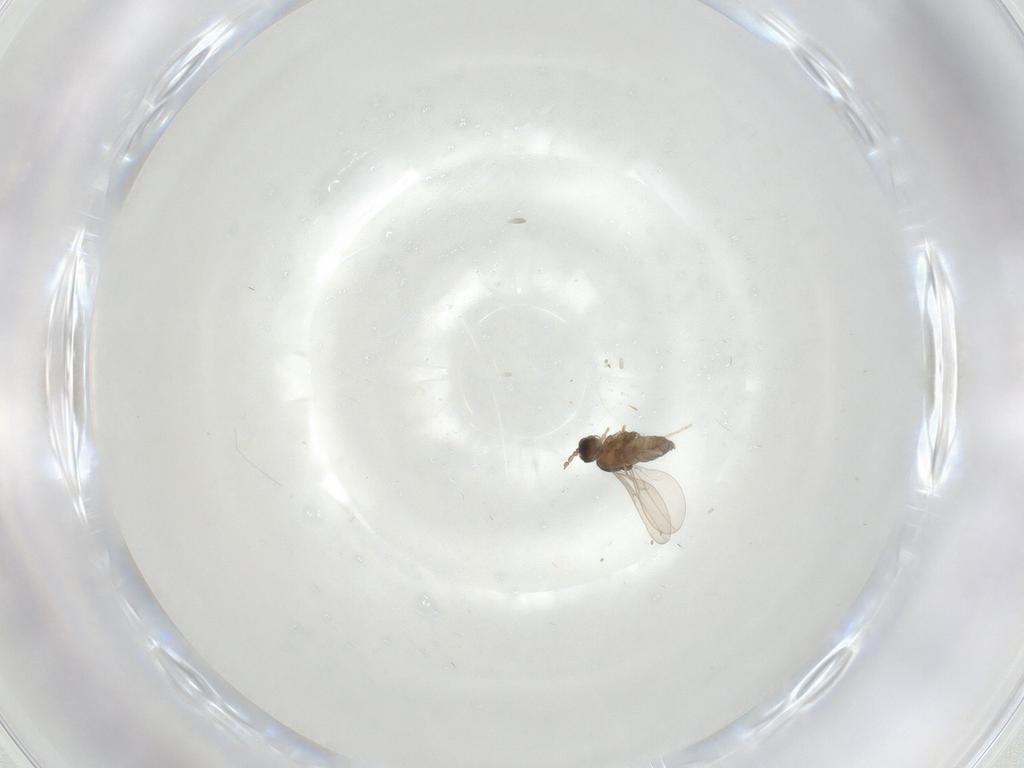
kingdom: Animalia
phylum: Arthropoda
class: Insecta
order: Diptera
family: Cecidomyiidae
